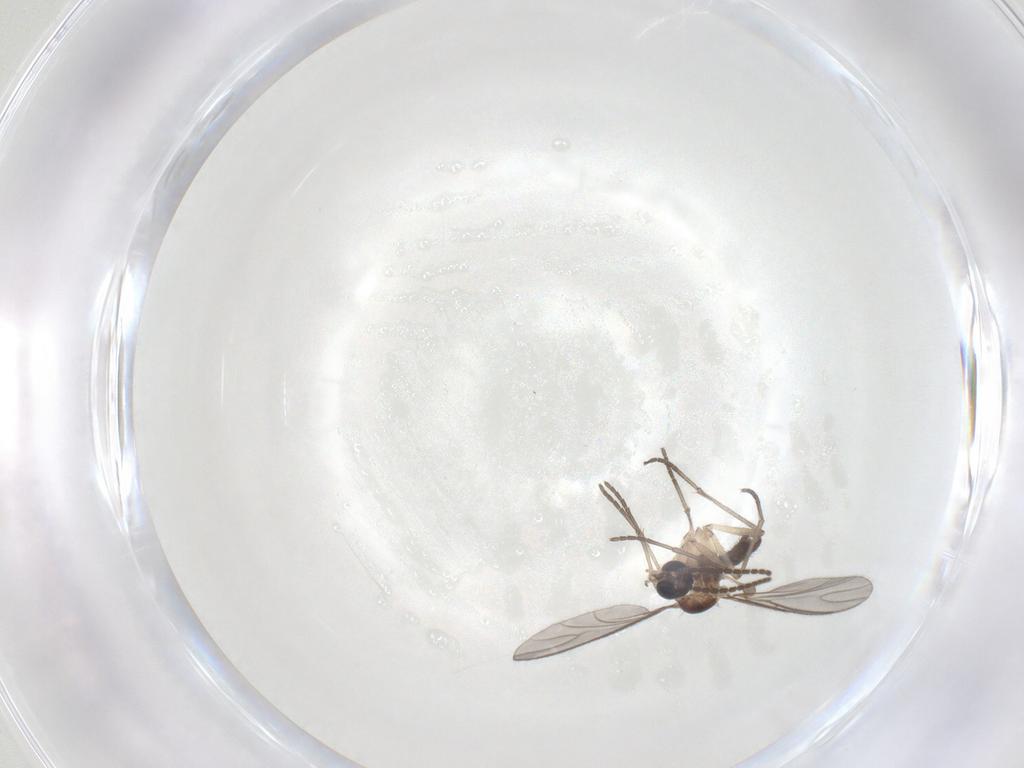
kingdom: Animalia
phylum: Arthropoda
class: Insecta
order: Diptera
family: Sciaridae
